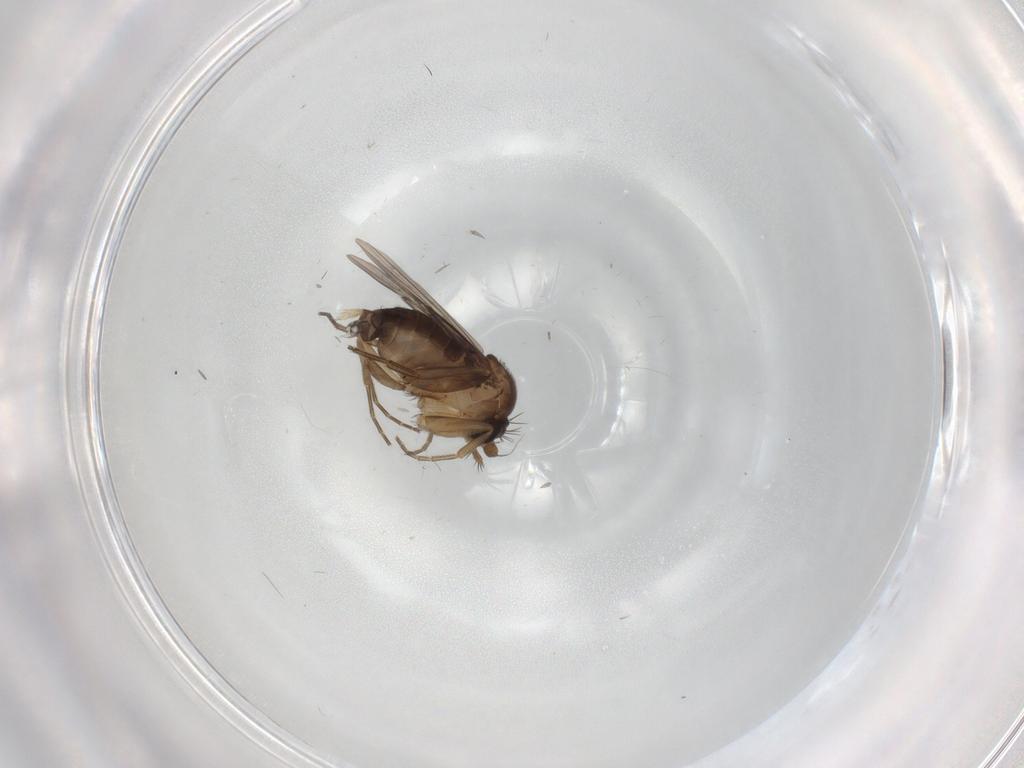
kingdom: Animalia
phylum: Arthropoda
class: Insecta
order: Diptera
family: Phoridae
